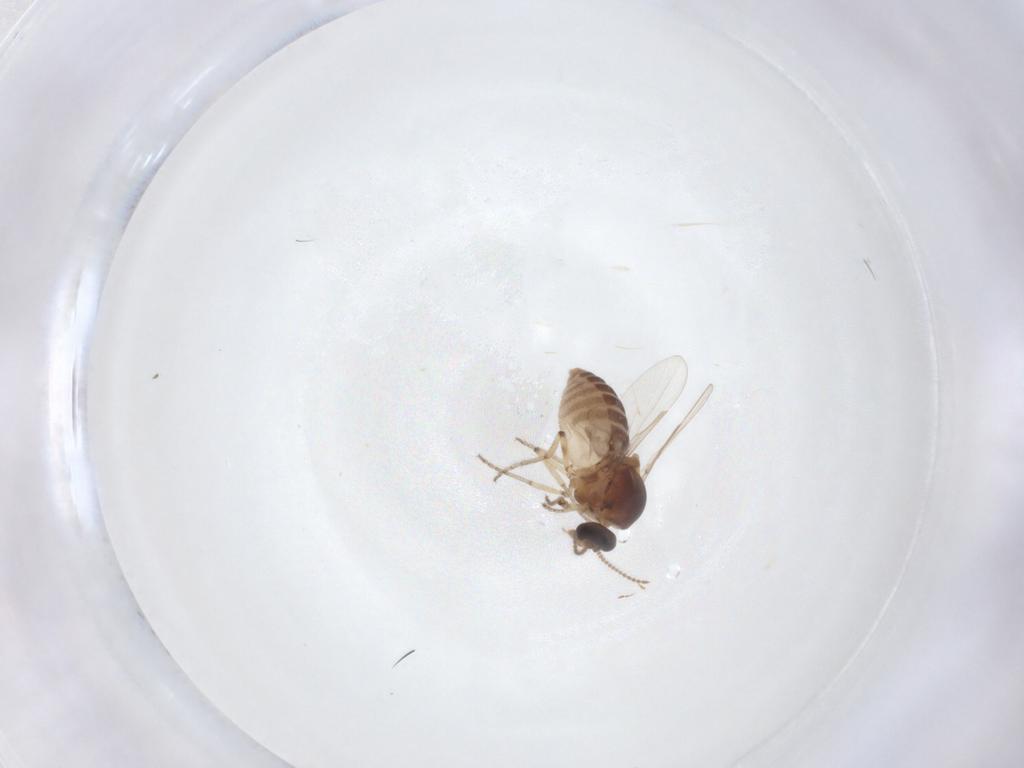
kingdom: Animalia
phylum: Arthropoda
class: Insecta
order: Diptera
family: Ceratopogonidae
